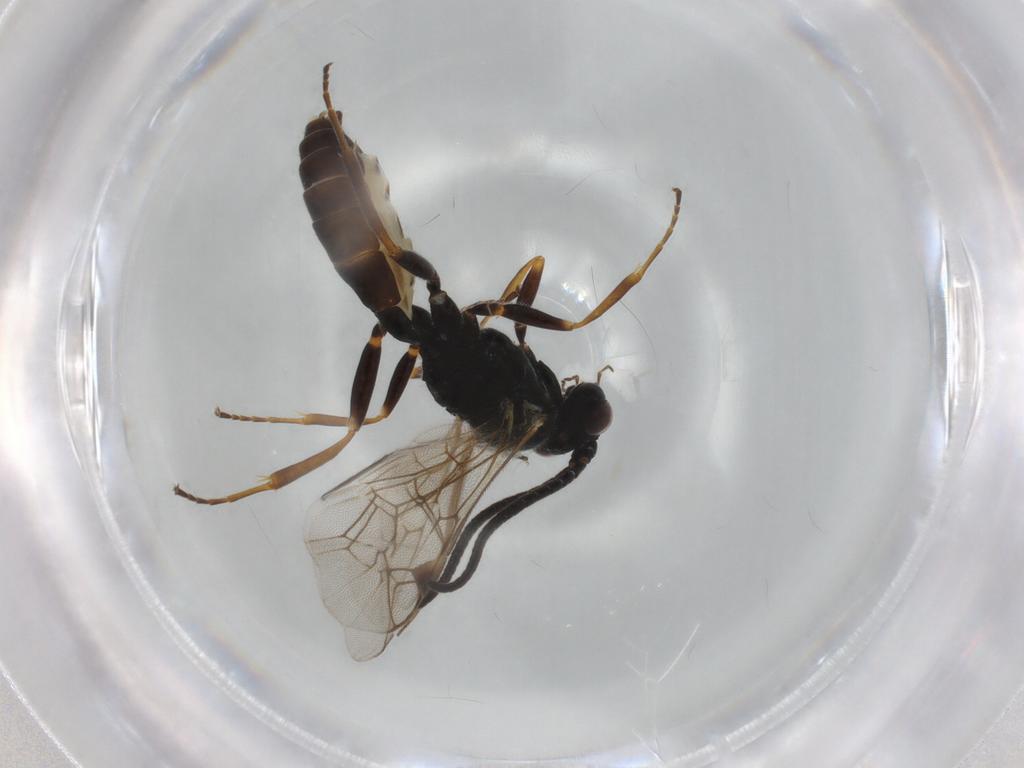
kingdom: Animalia
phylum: Arthropoda
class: Insecta
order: Hymenoptera
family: Ichneumonidae
